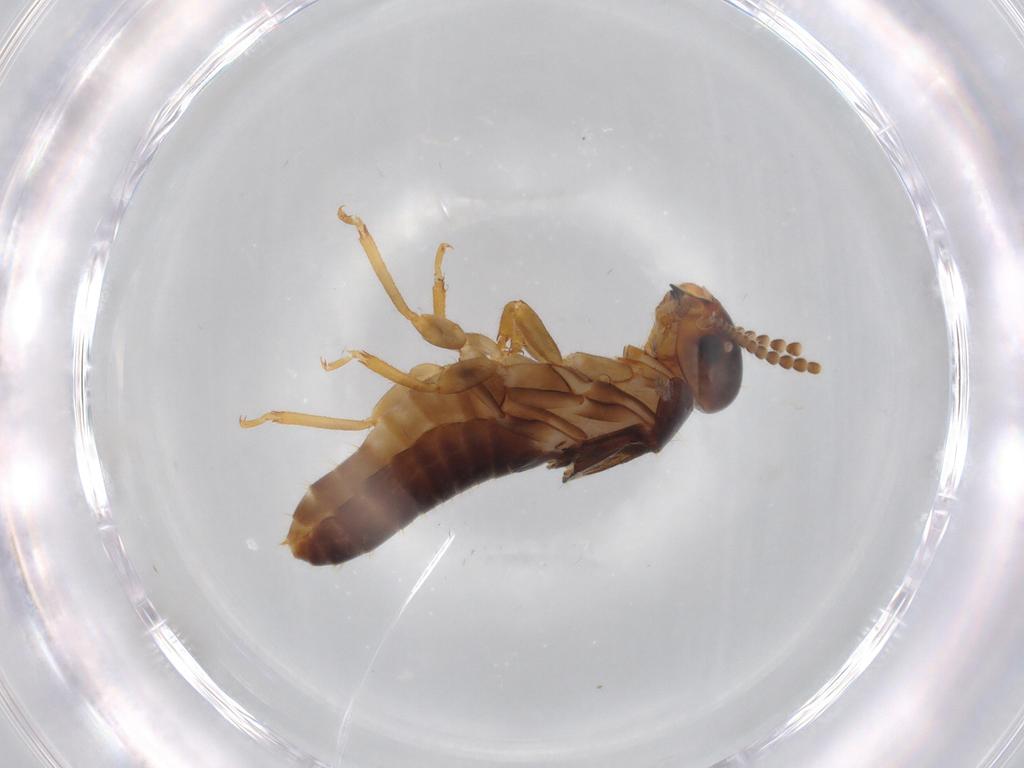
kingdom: Animalia
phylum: Arthropoda
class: Insecta
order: Blattodea
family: Kalotermitidae
